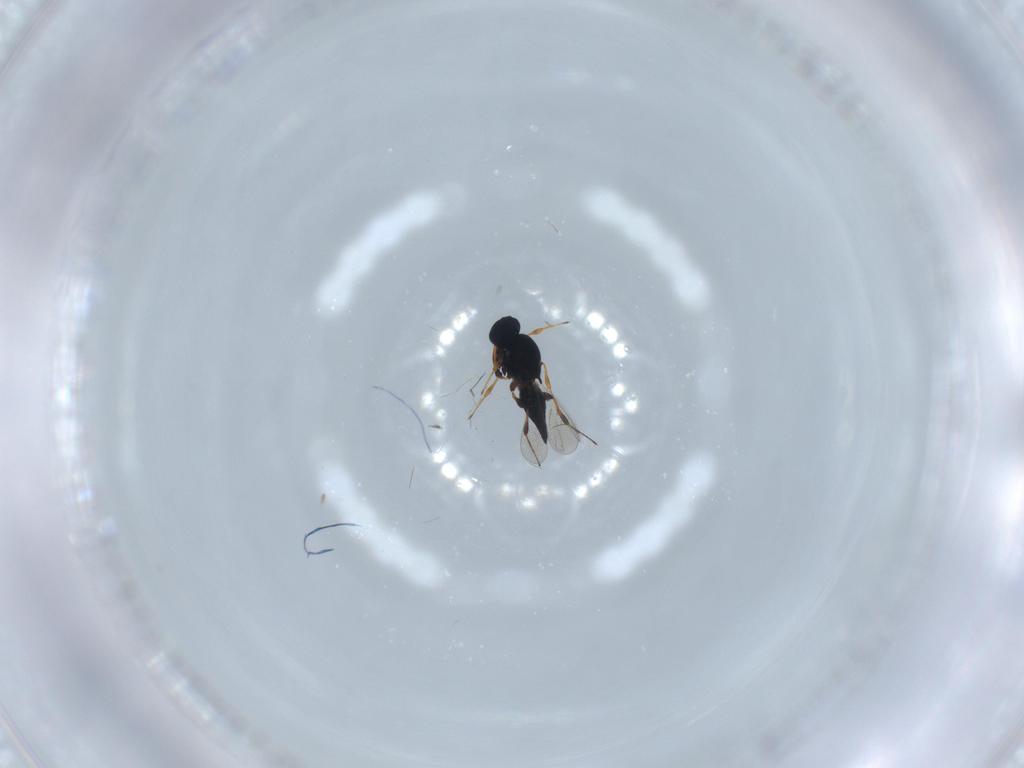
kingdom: Animalia
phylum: Arthropoda
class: Insecta
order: Hymenoptera
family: Platygastridae
